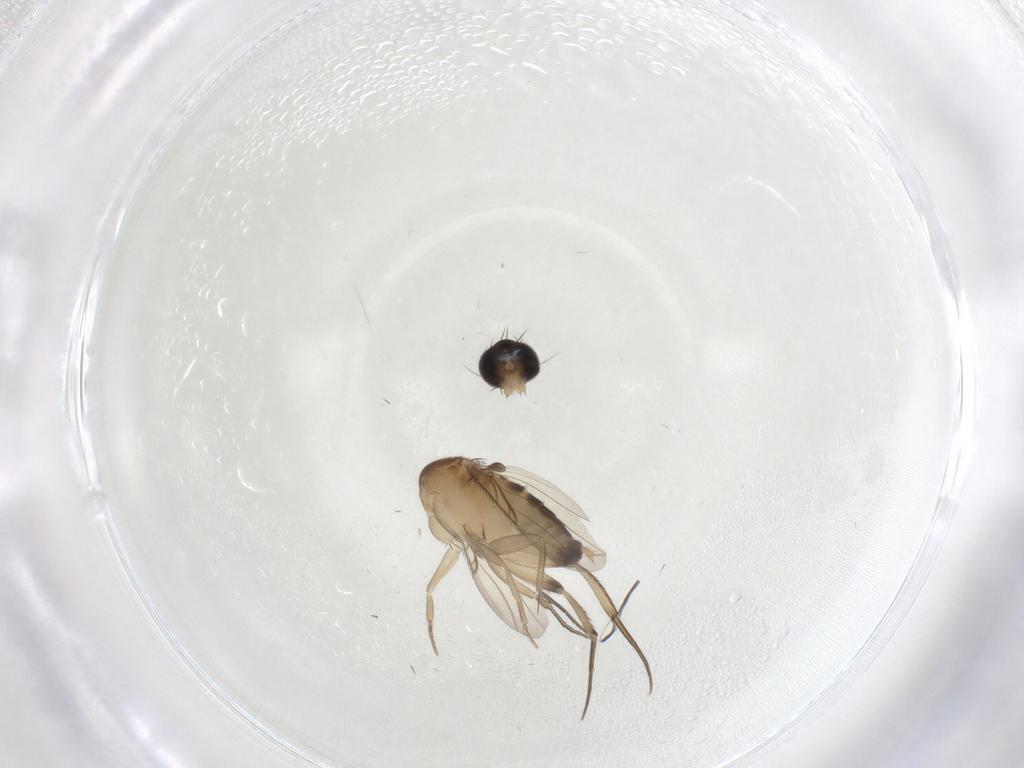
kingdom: Animalia
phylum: Arthropoda
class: Insecta
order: Diptera
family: Phoridae
